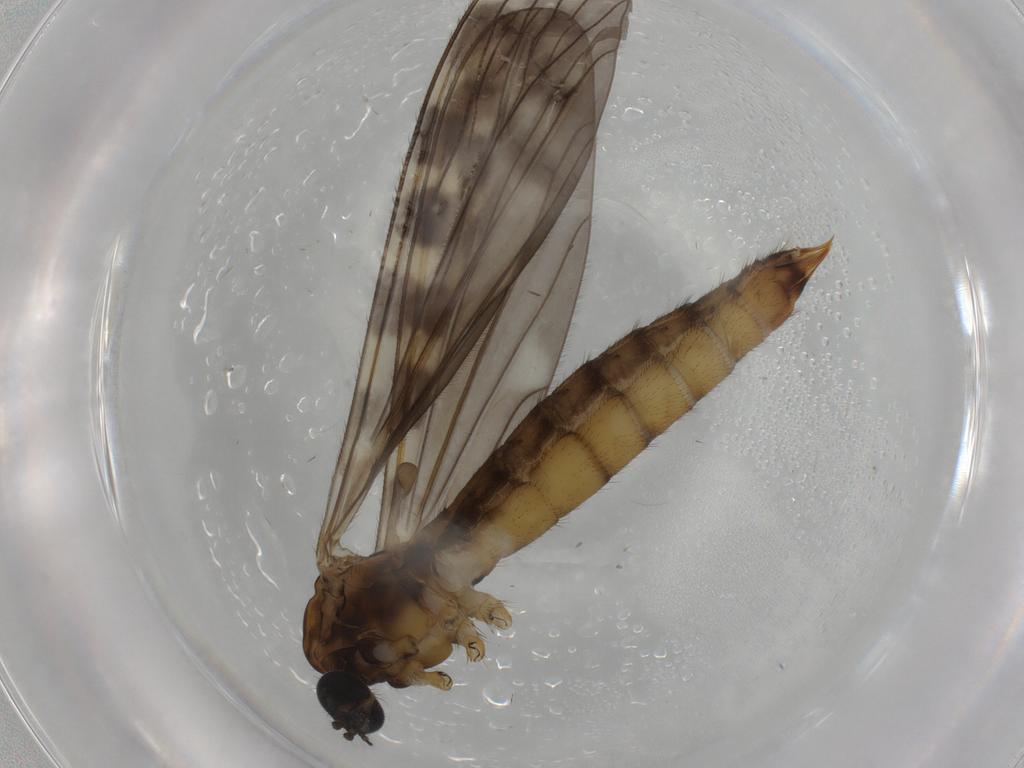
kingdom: Animalia
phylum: Arthropoda
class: Insecta
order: Diptera
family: Limoniidae
